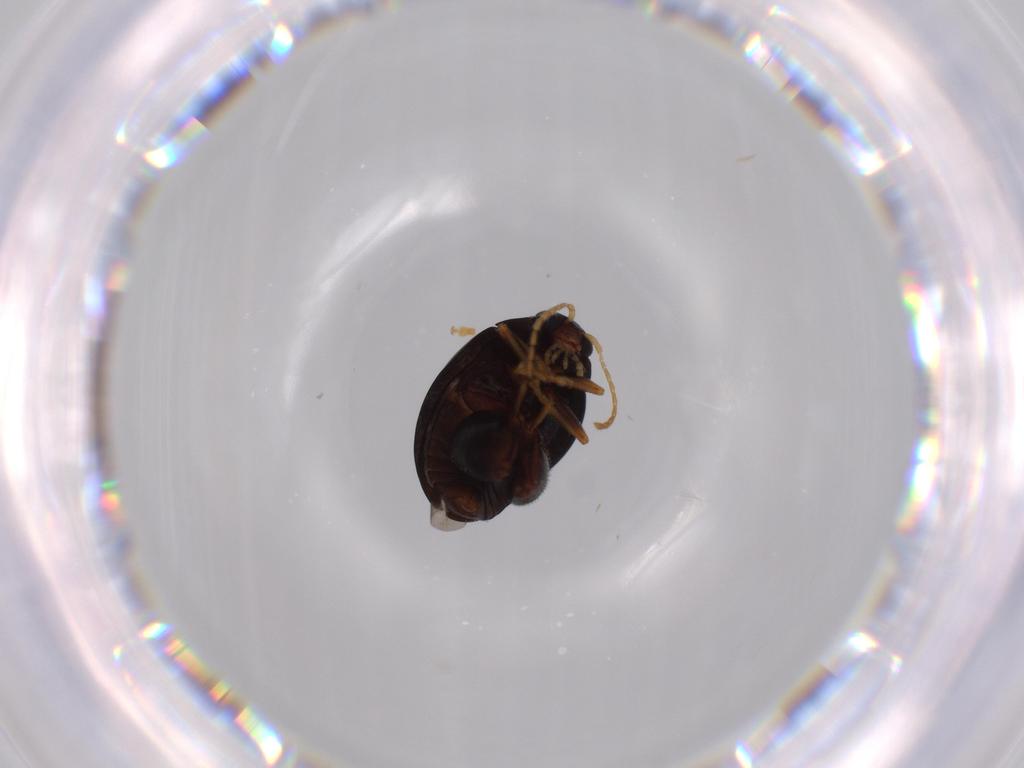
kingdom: Animalia
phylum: Arthropoda
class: Insecta
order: Coleoptera
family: Chrysomelidae
